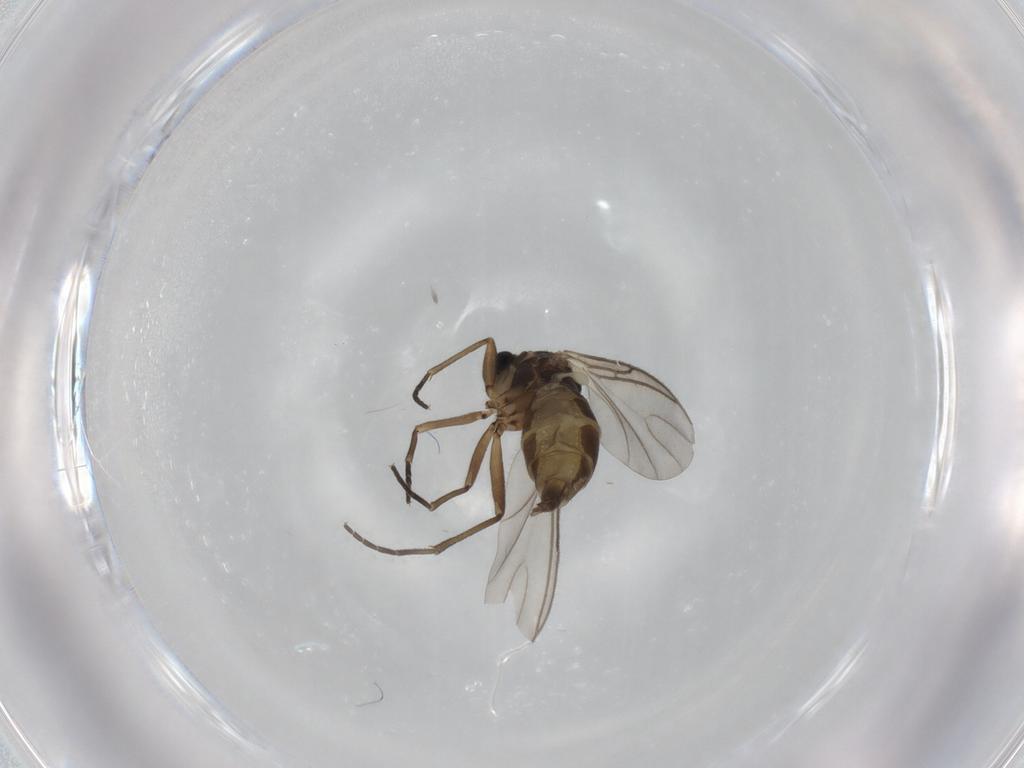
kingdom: Animalia
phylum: Arthropoda
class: Insecta
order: Diptera
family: Anthomyiidae
